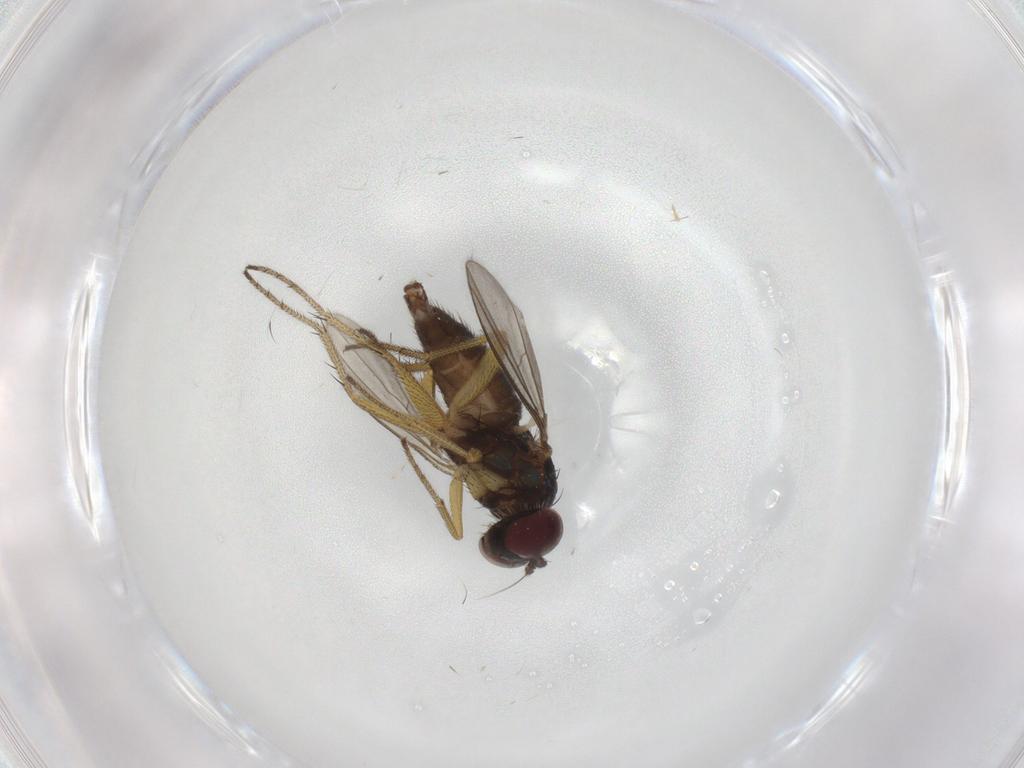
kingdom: Animalia
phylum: Arthropoda
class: Insecta
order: Diptera
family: Chironomidae
